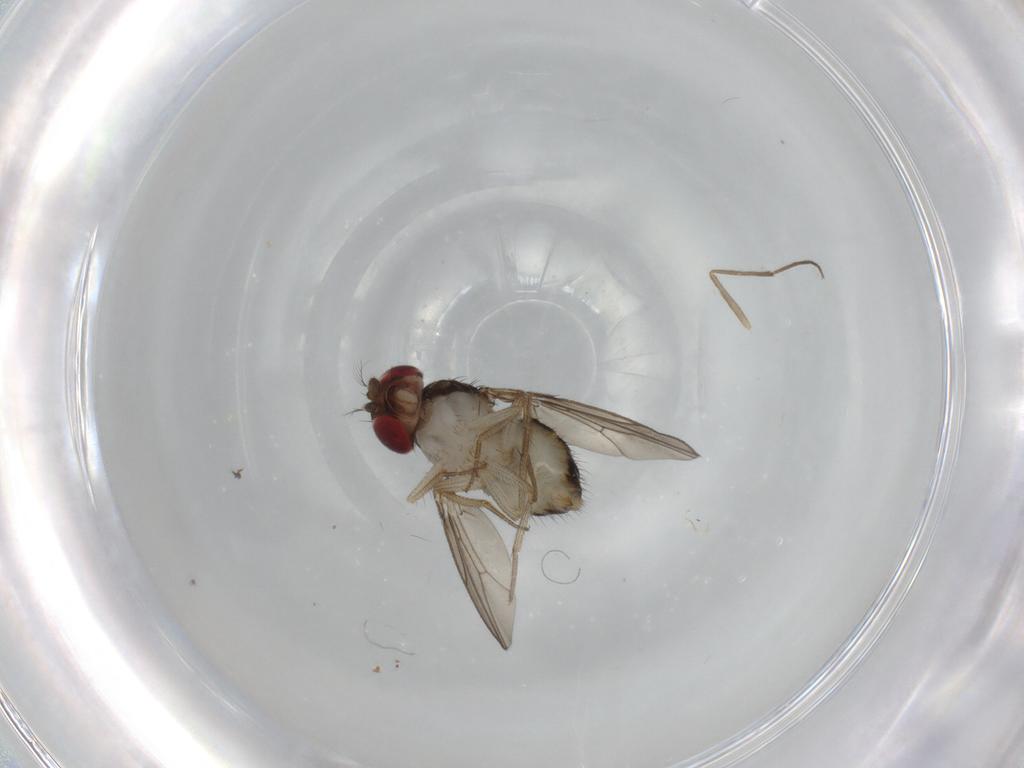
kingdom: Animalia
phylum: Arthropoda
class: Insecta
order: Diptera
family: Drosophilidae
